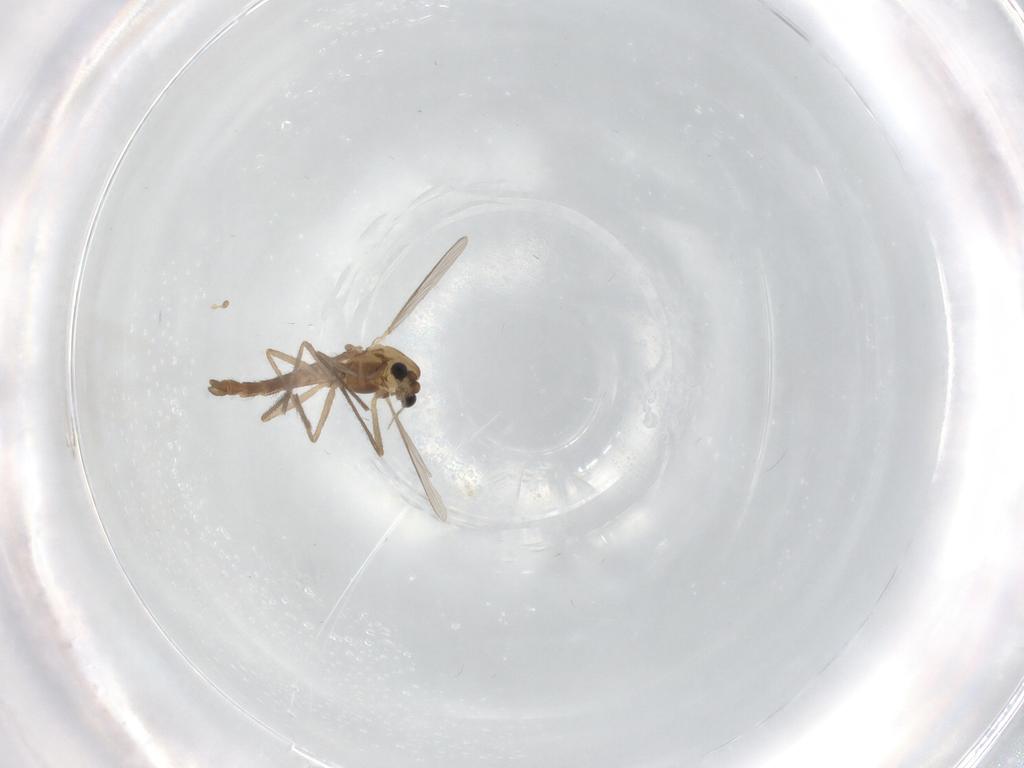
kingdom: Animalia
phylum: Arthropoda
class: Insecta
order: Diptera
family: Chironomidae
